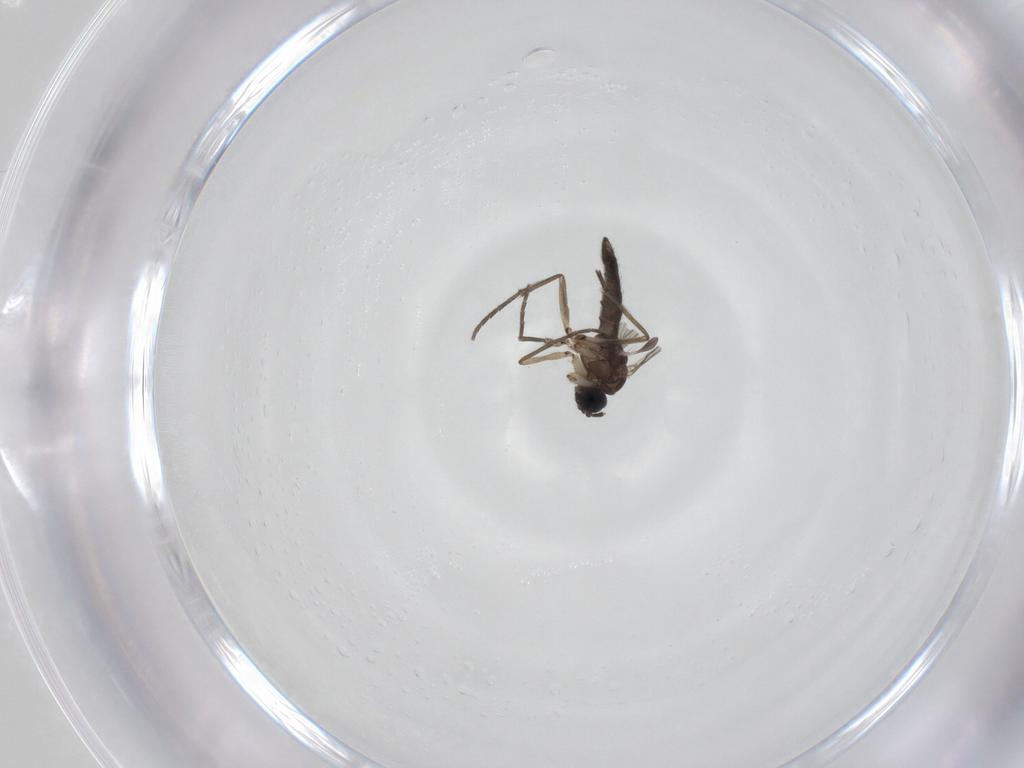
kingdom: Animalia
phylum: Arthropoda
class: Insecta
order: Diptera
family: Sciaridae
